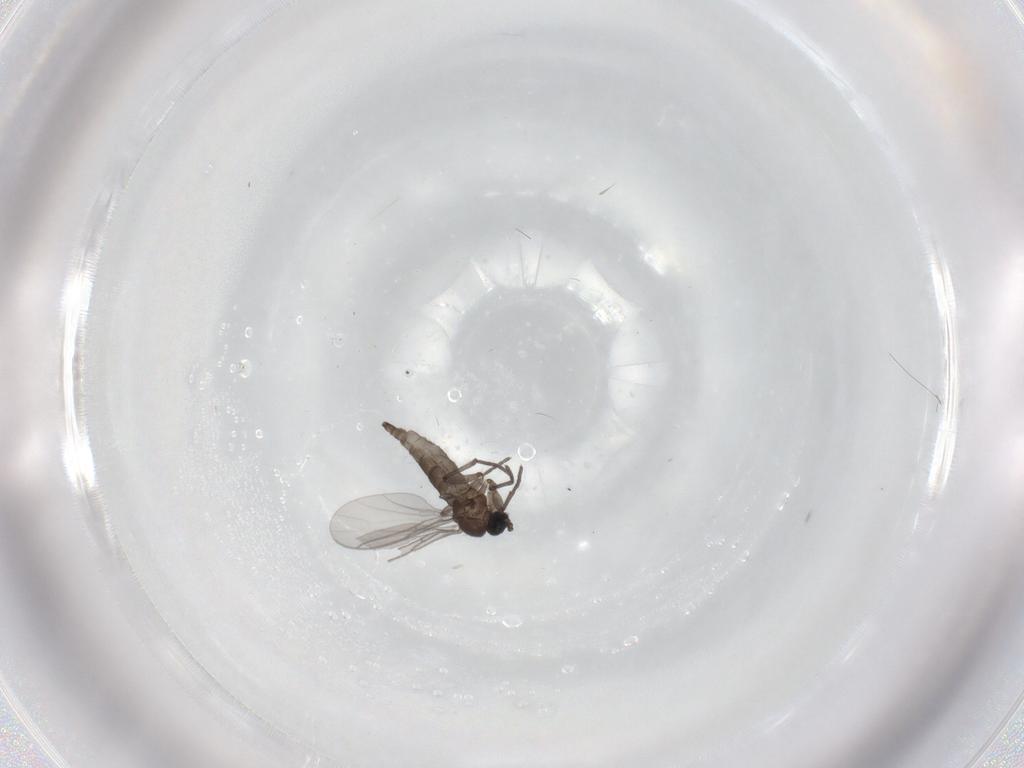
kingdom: Animalia
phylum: Arthropoda
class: Insecta
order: Diptera
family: Sciaridae
